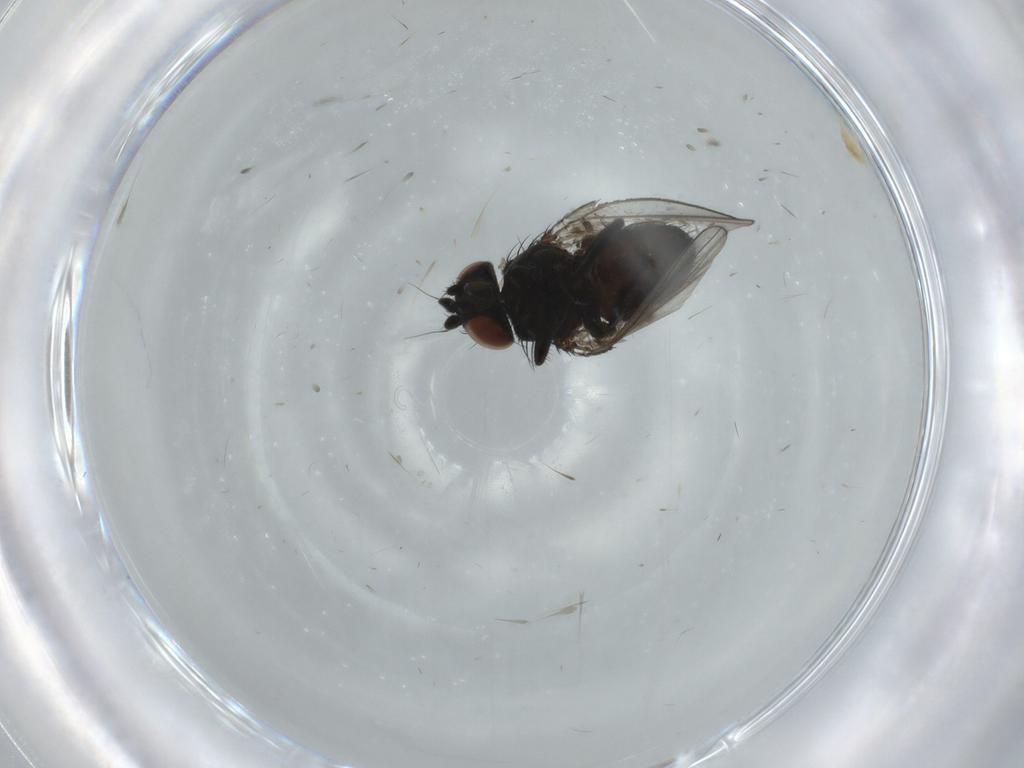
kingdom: Animalia
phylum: Arthropoda
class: Insecta
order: Diptera
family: Milichiidae
